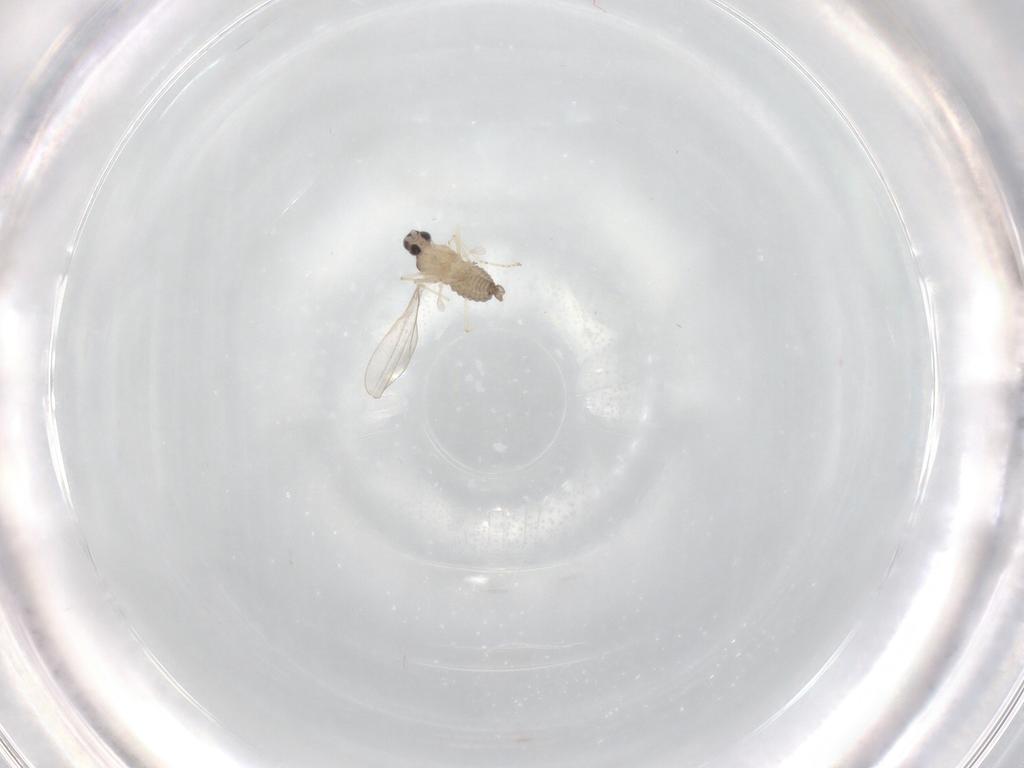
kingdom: Animalia
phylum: Arthropoda
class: Insecta
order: Diptera
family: Cecidomyiidae
